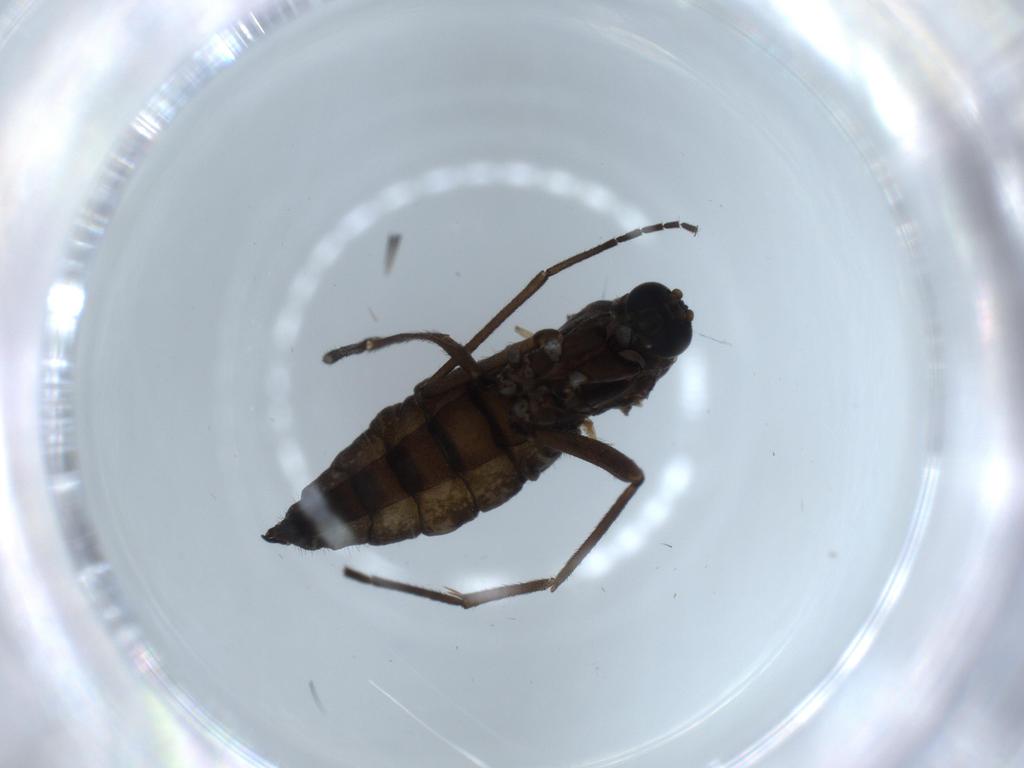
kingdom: Animalia
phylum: Arthropoda
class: Insecta
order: Diptera
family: Sciaridae
